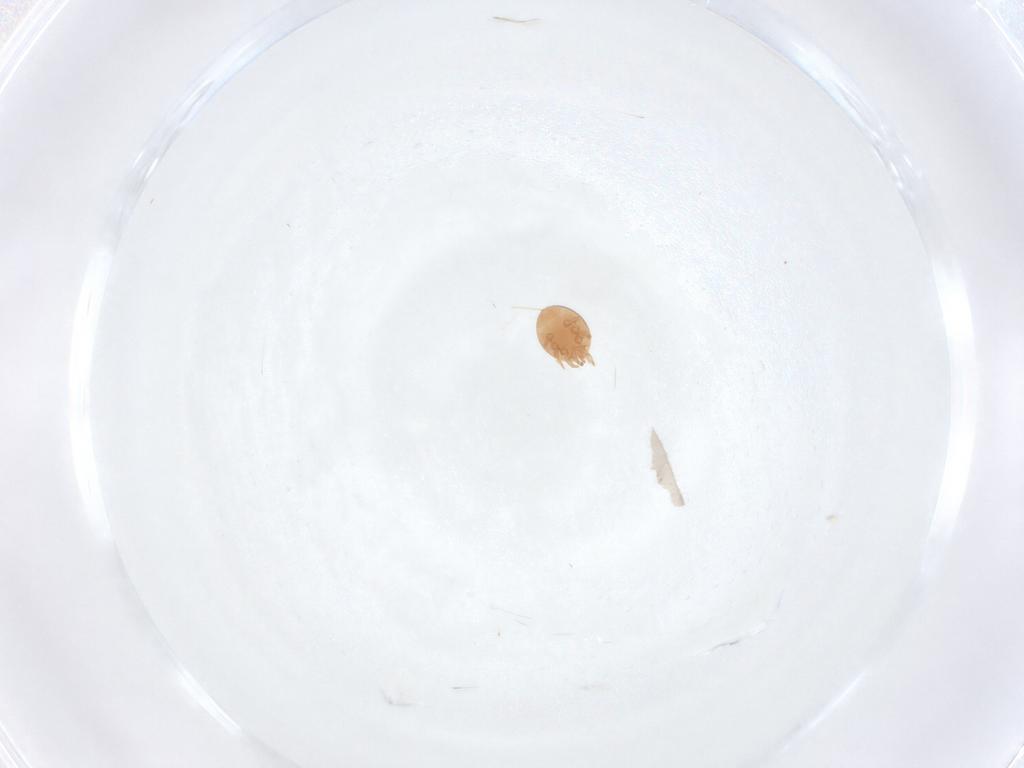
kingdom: Animalia
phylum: Arthropoda
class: Arachnida
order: Mesostigmata
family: Trematuridae
